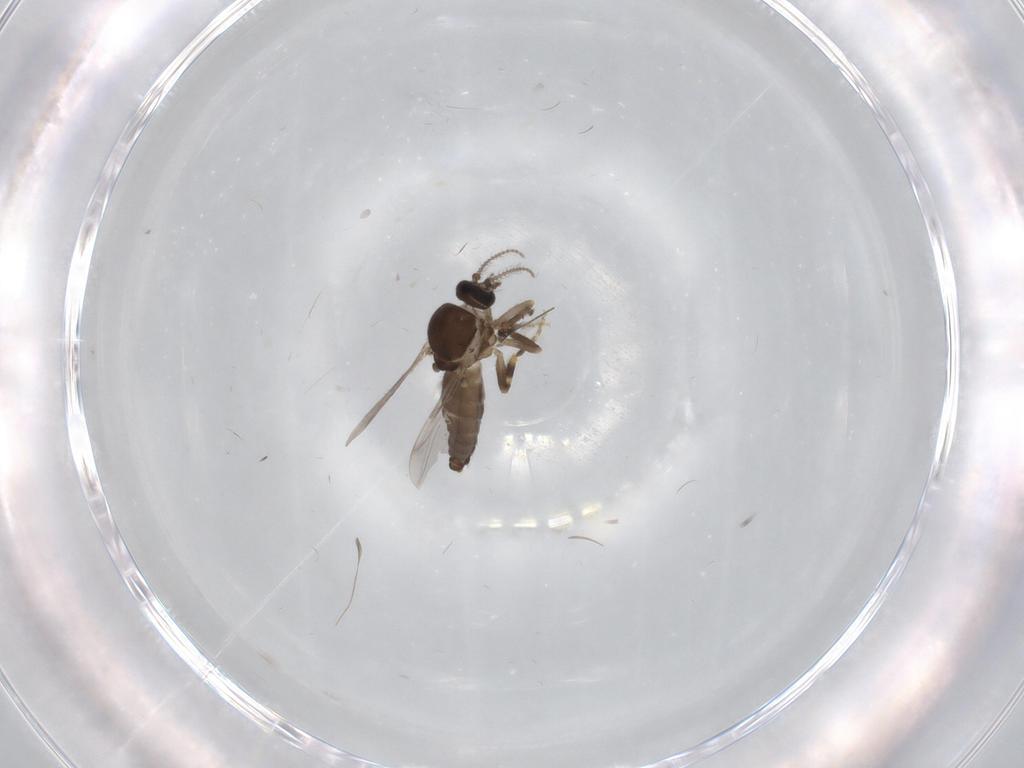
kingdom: Animalia
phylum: Arthropoda
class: Insecta
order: Diptera
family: Ceratopogonidae
